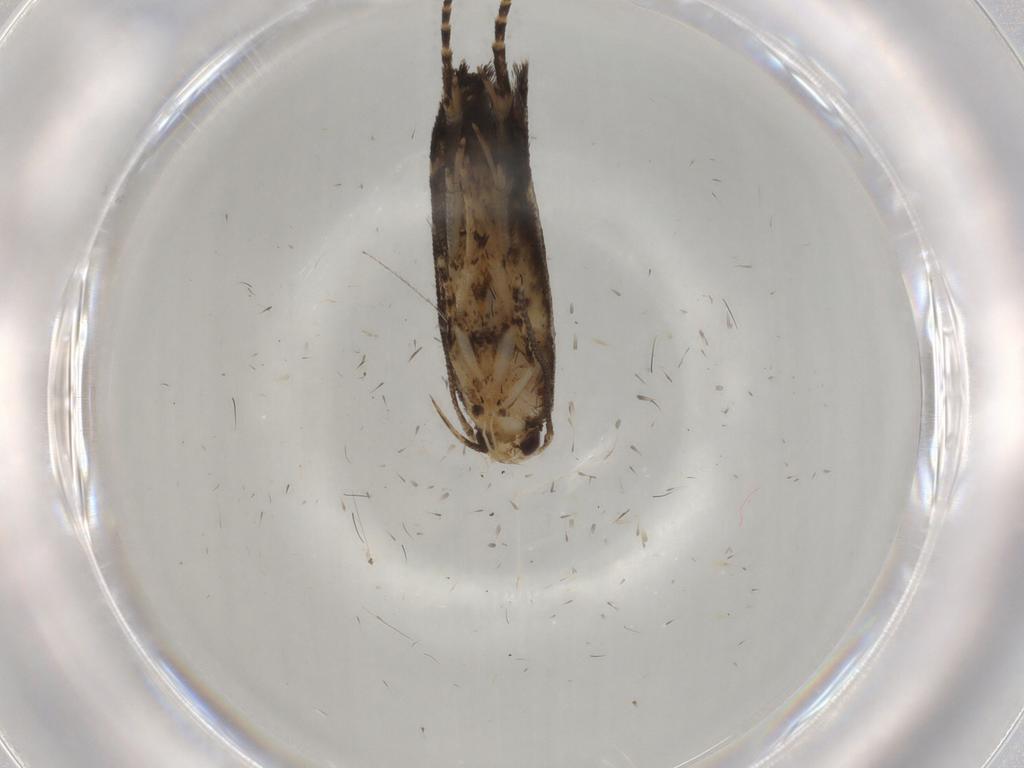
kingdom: Animalia
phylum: Arthropoda
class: Insecta
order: Lepidoptera
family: Cosmopterigidae
